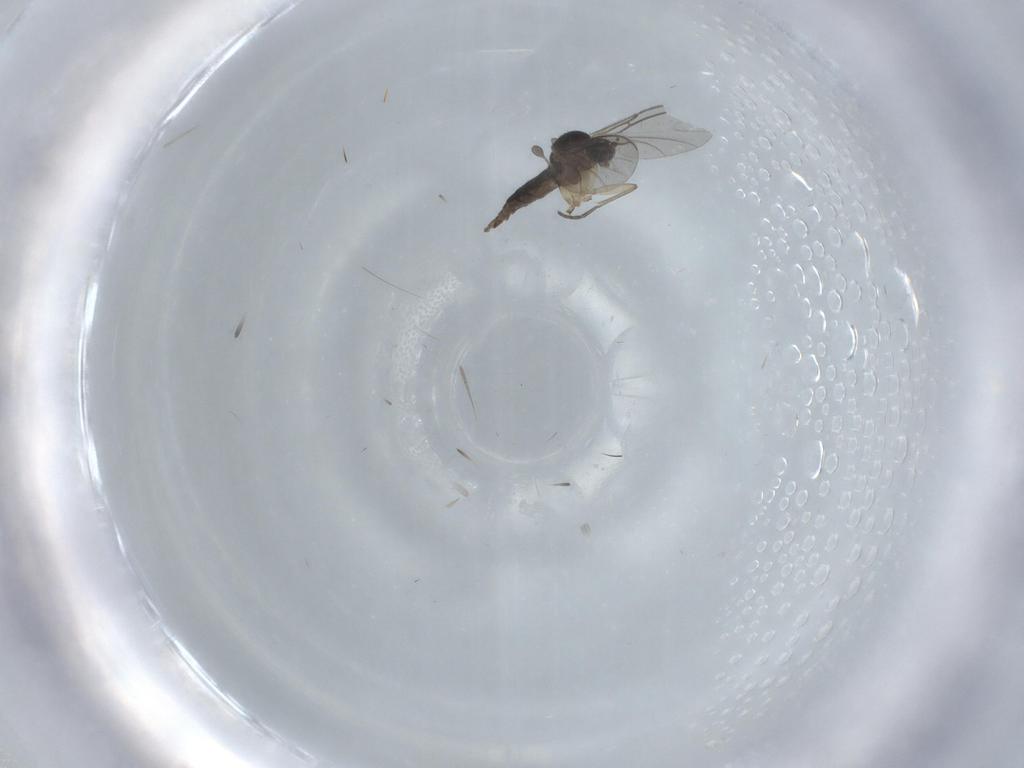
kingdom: Animalia
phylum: Arthropoda
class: Insecta
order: Diptera
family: Sciaridae
